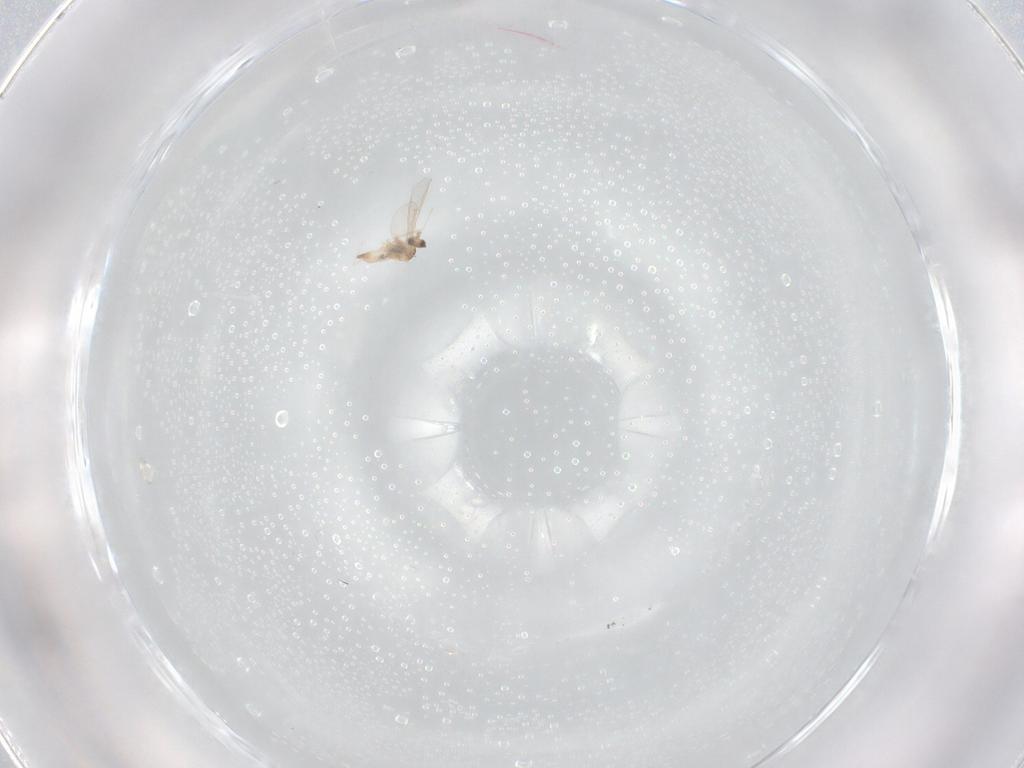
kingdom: Animalia
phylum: Arthropoda
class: Insecta
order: Diptera
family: Cecidomyiidae
